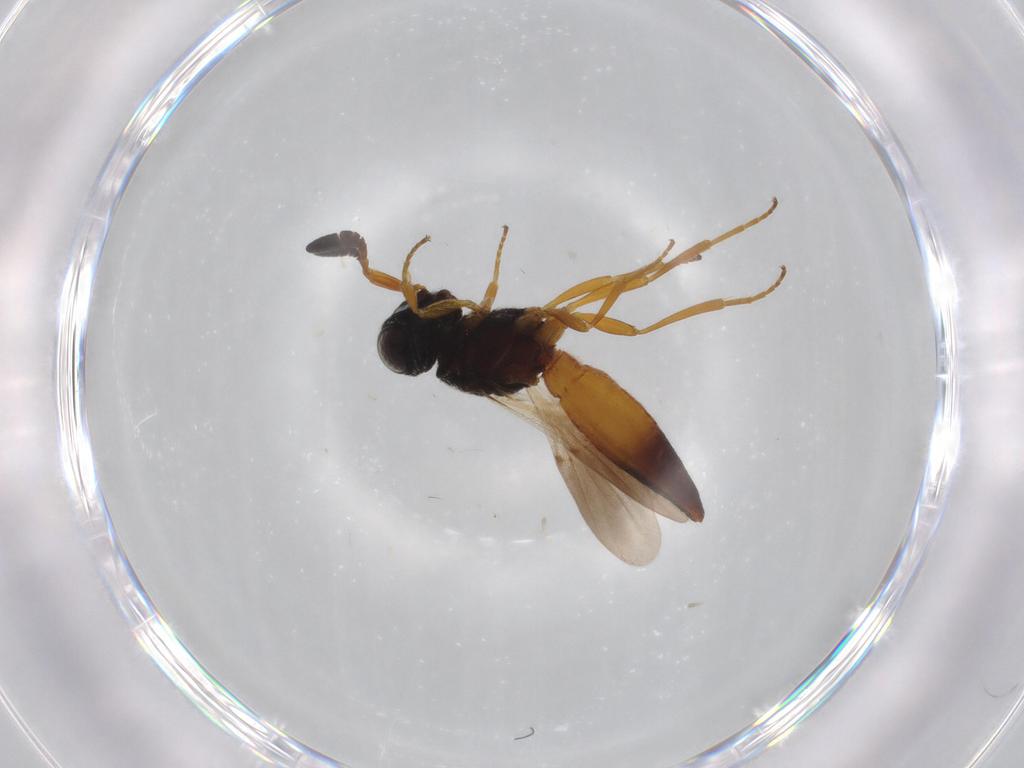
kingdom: Animalia
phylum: Arthropoda
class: Insecta
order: Hymenoptera
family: Scelionidae
